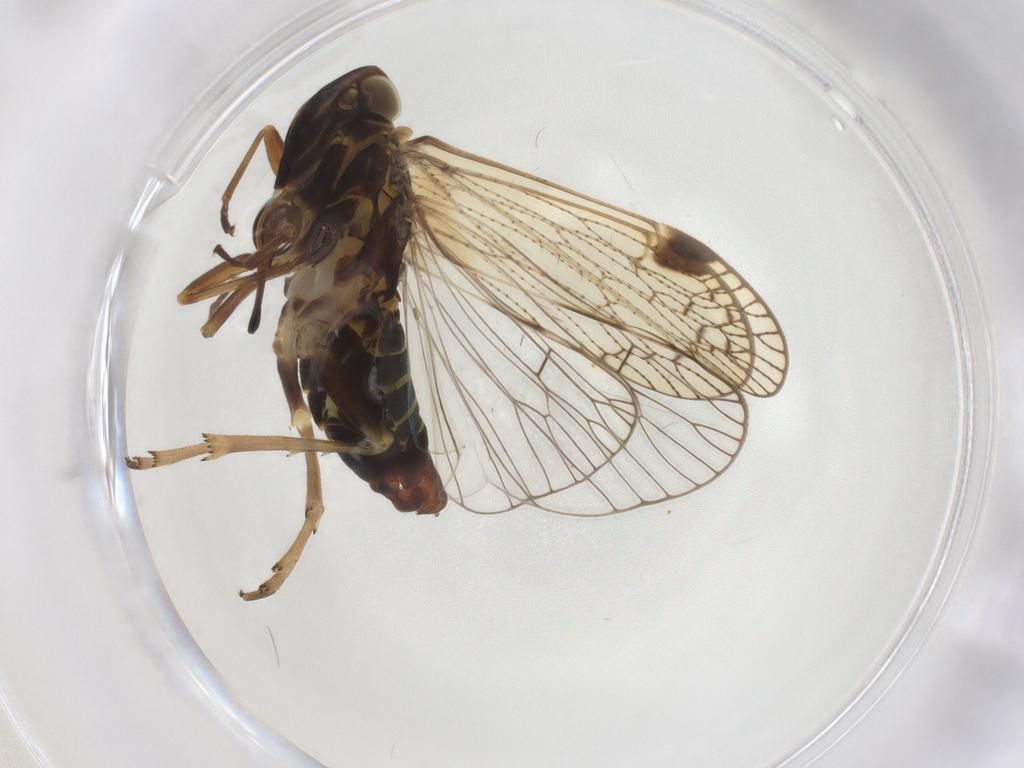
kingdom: Animalia
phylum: Arthropoda
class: Insecta
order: Hemiptera
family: Cixiidae
